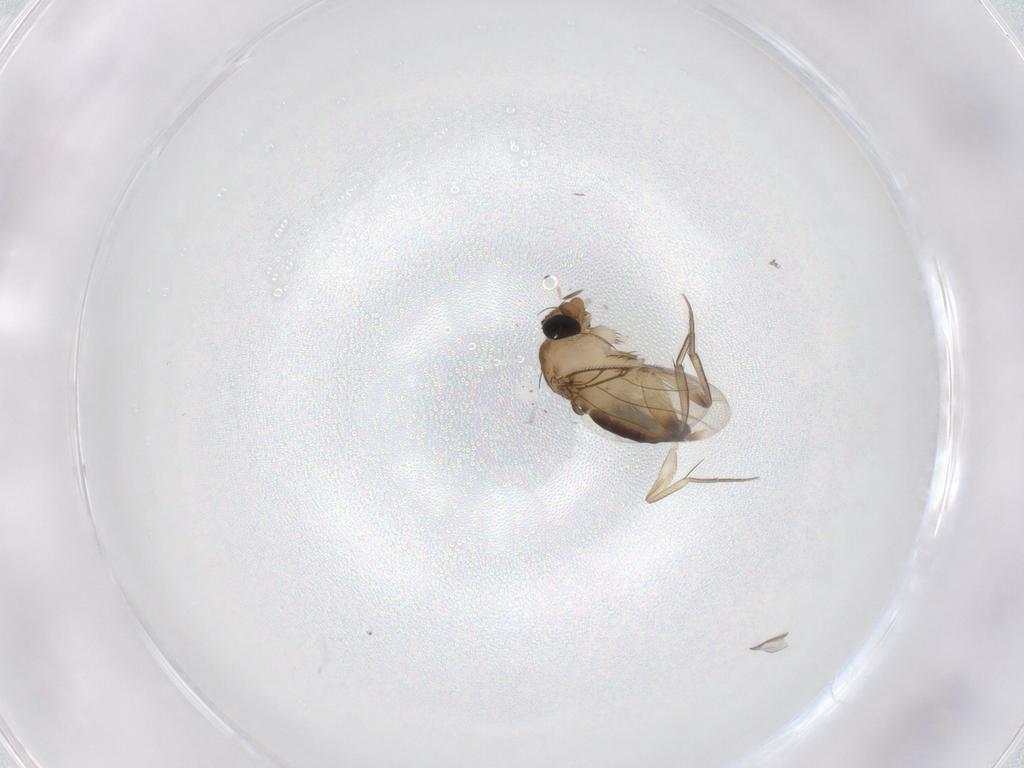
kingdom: Animalia
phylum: Arthropoda
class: Insecta
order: Diptera
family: Phoridae
